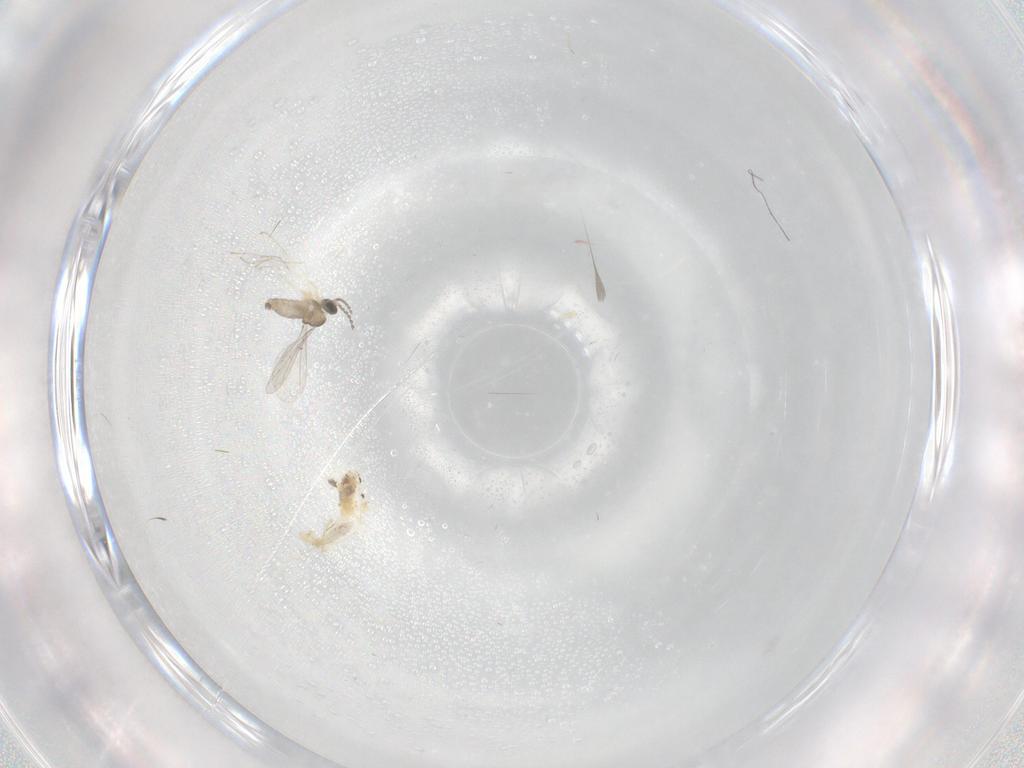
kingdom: Animalia
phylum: Arthropoda
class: Insecta
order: Diptera
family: Cecidomyiidae
